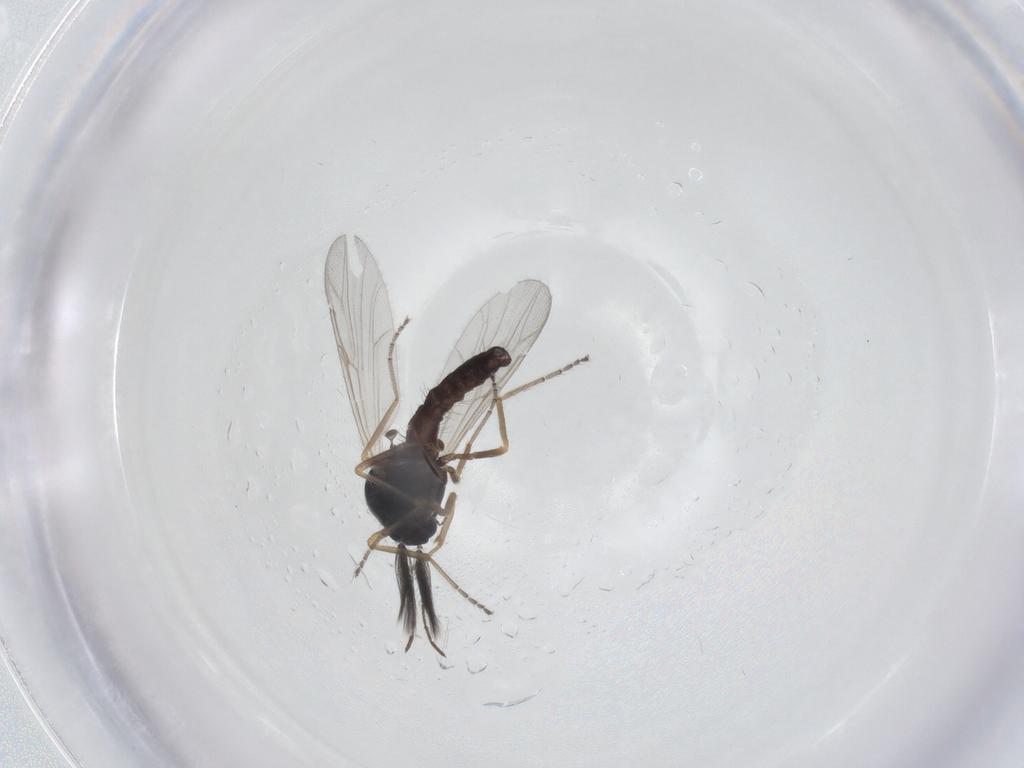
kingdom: Animalia
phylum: Arthropoda
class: Insecta
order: Diptera
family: Ceratopogonidae
